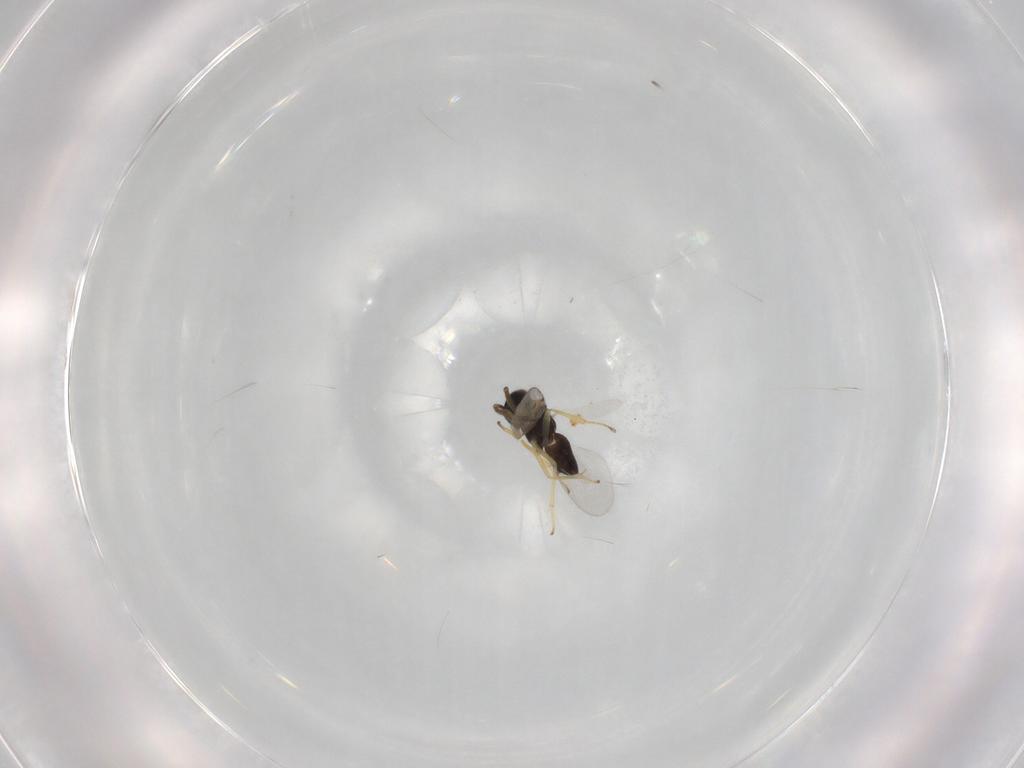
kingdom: Animalia
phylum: Arthropoda
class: Insecta
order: Hymenoptera
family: Encyrtidae
